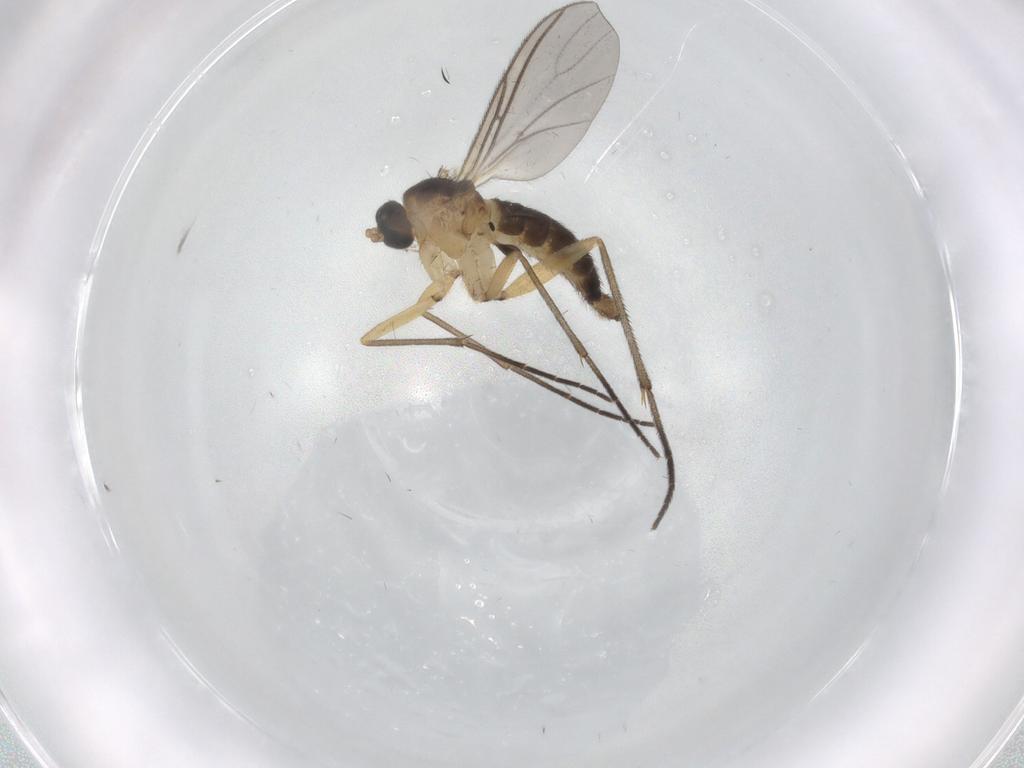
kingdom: Animalia
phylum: Arthropoda
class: Insecta
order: Diptera
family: Sciaridae
